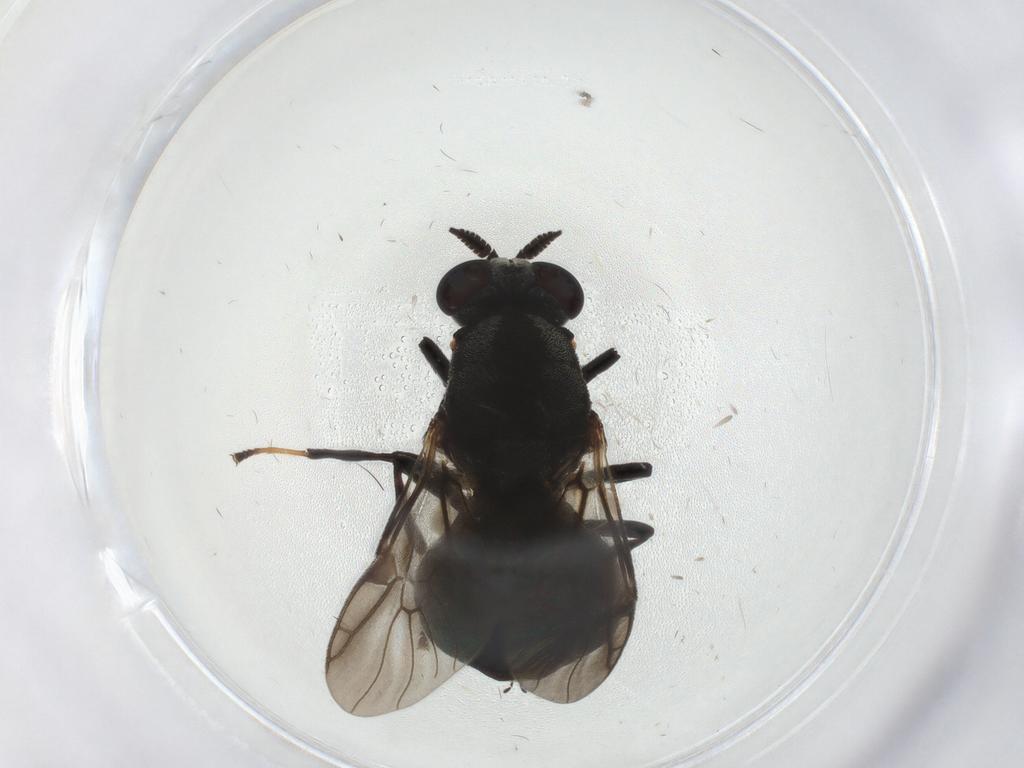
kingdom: Animalia
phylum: Arthropoda
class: Insecta
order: Diptera
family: Stratiomyidae
